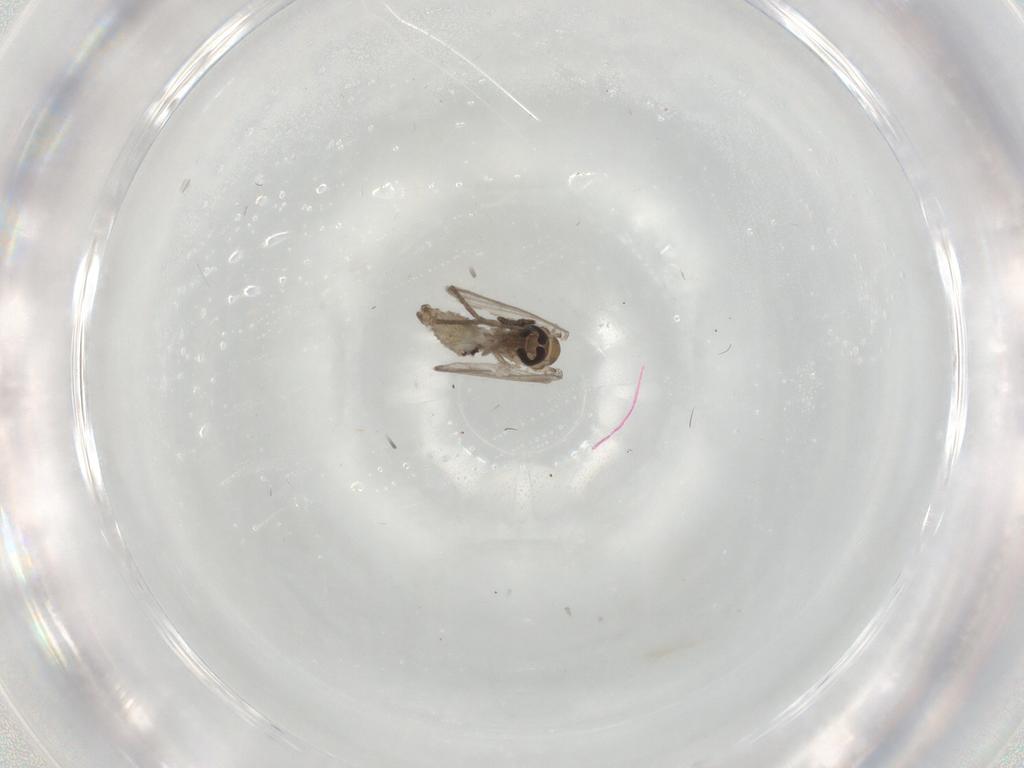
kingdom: Animalia
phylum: Arthropoda
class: Insecta
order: Diptera
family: Psychodidae
